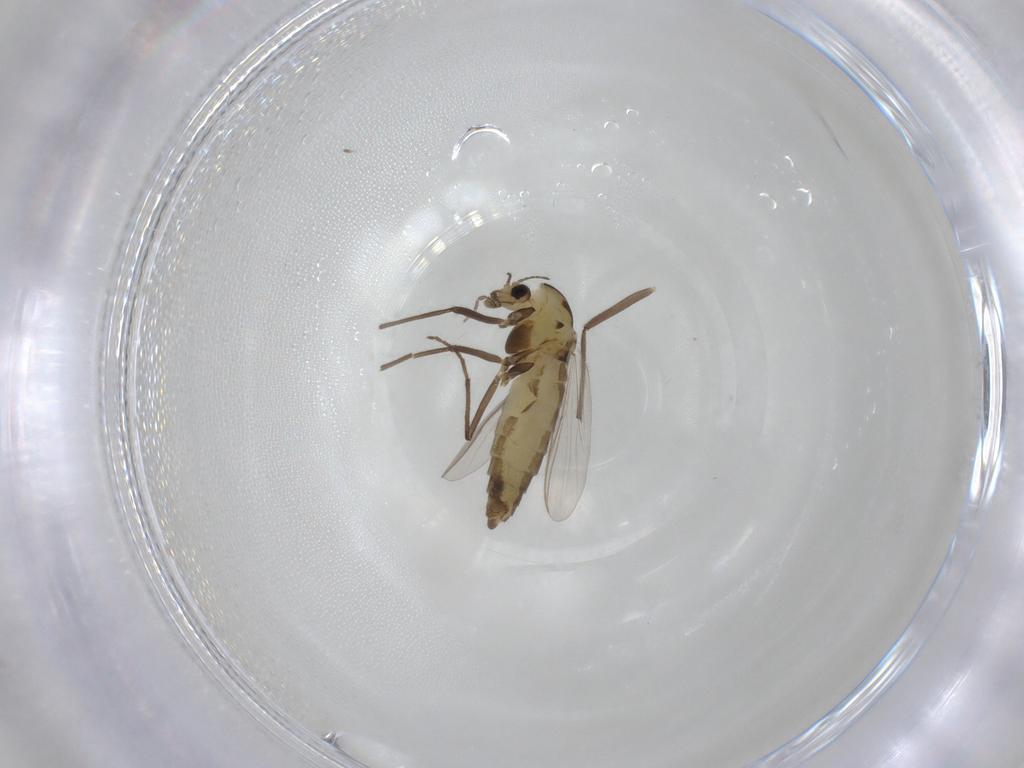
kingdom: Animalia
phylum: Arthropoda
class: Insecta
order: Diptera
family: Chironomidae
